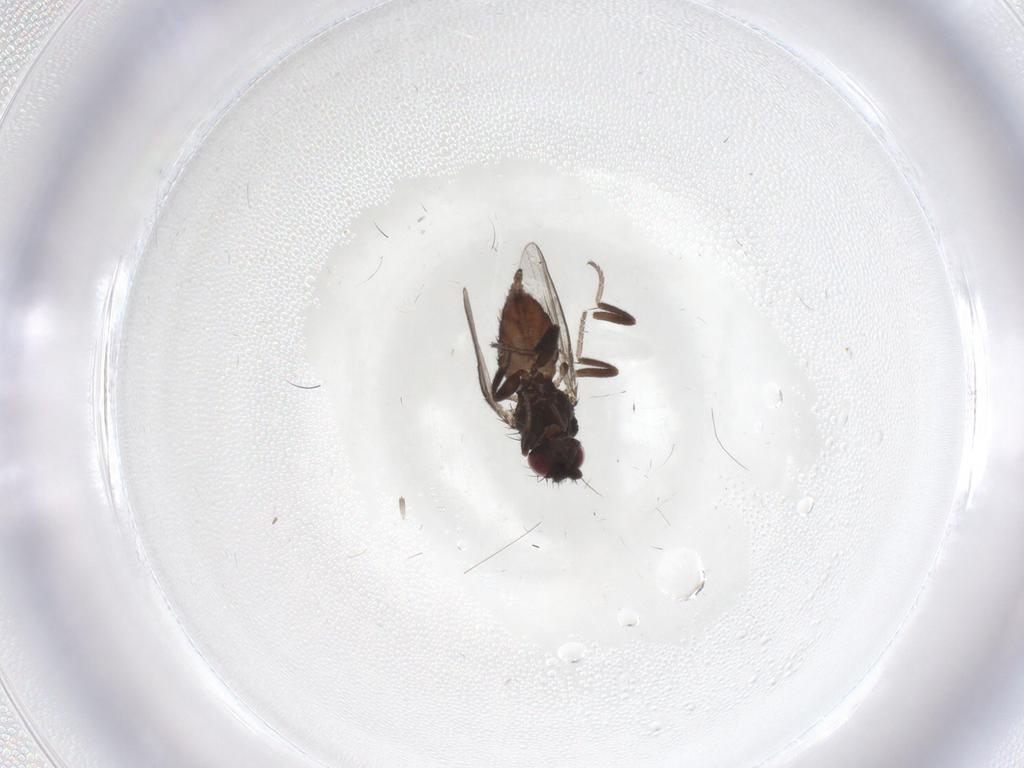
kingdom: Animalia
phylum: Arthropoda
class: Insecta
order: Diptera
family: Milichiidae
